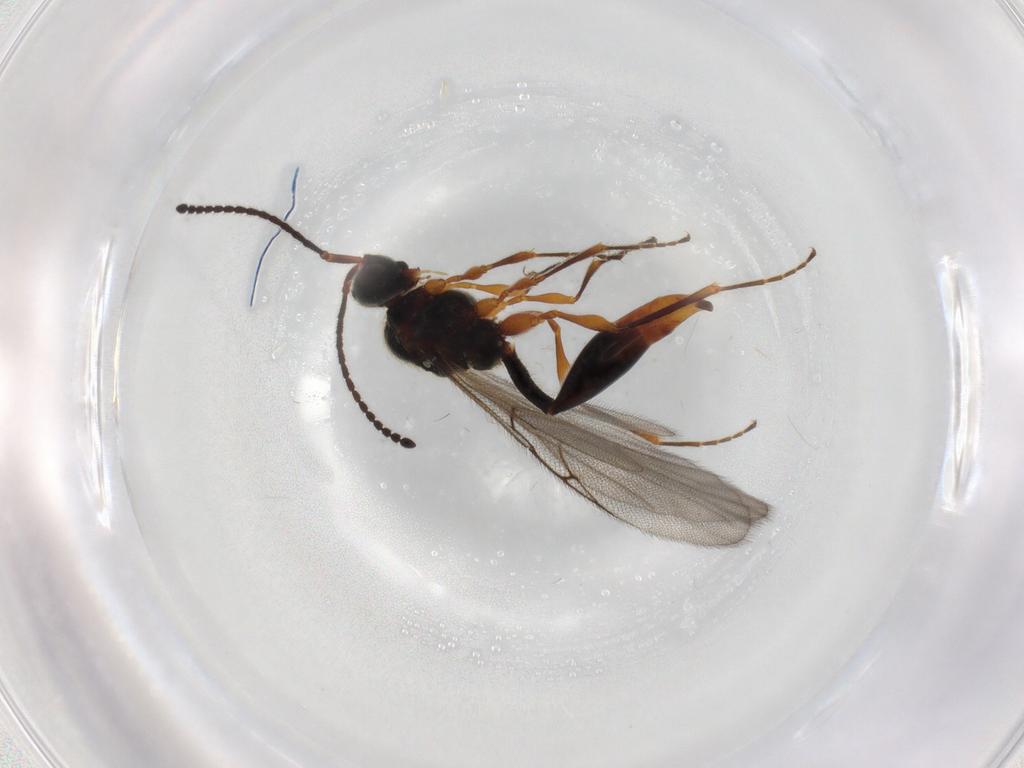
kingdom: Animalia
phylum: Arthropoda
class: Insecta
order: Hymenoptera
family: Diapriidae
